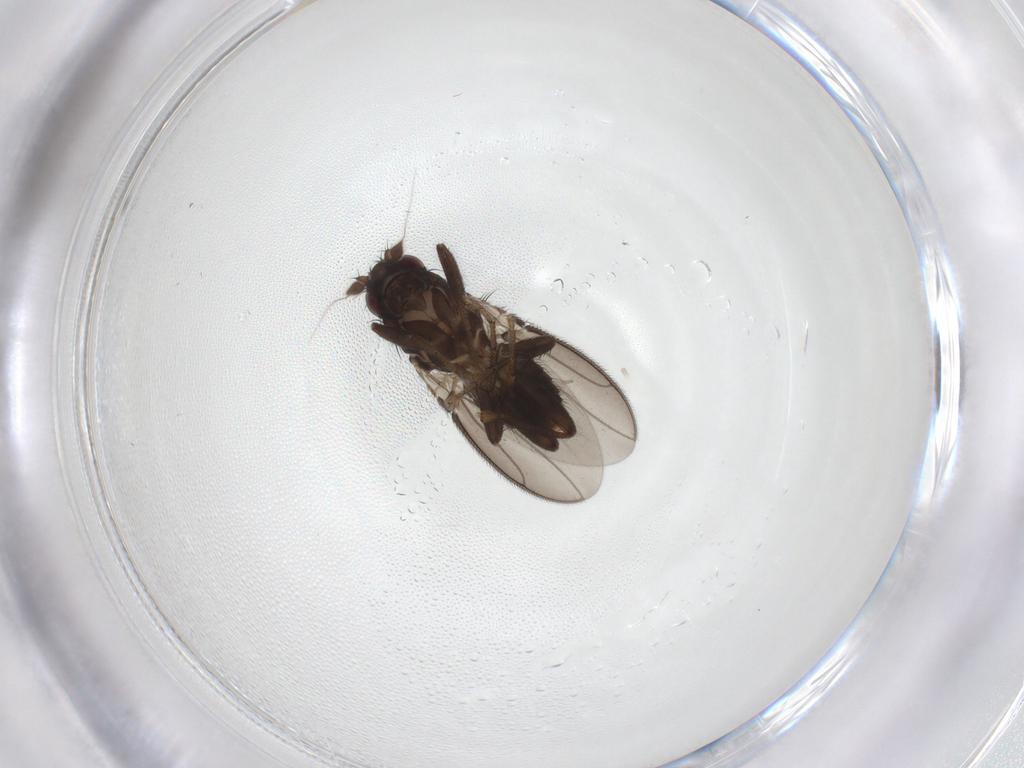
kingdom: Animalia
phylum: Arthropoda
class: Insecta
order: Diptera
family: Sphaeroceridae
